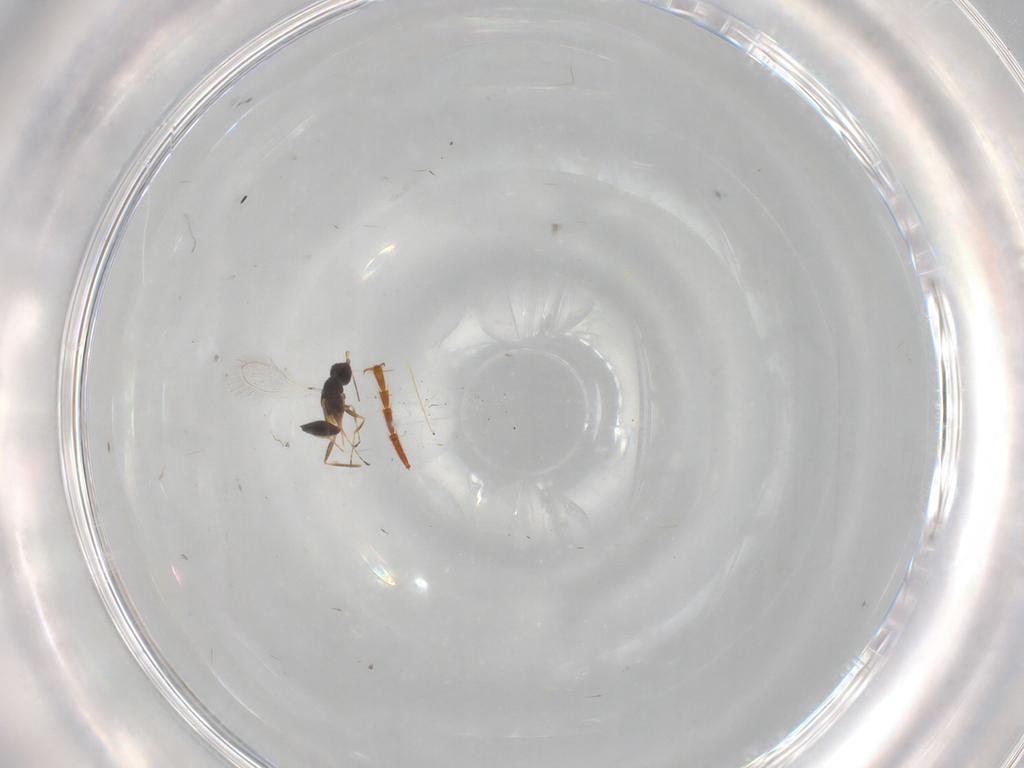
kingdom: Animalia
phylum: Arthropoda
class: Insecta
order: Hymenoptera
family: Mymaridae
